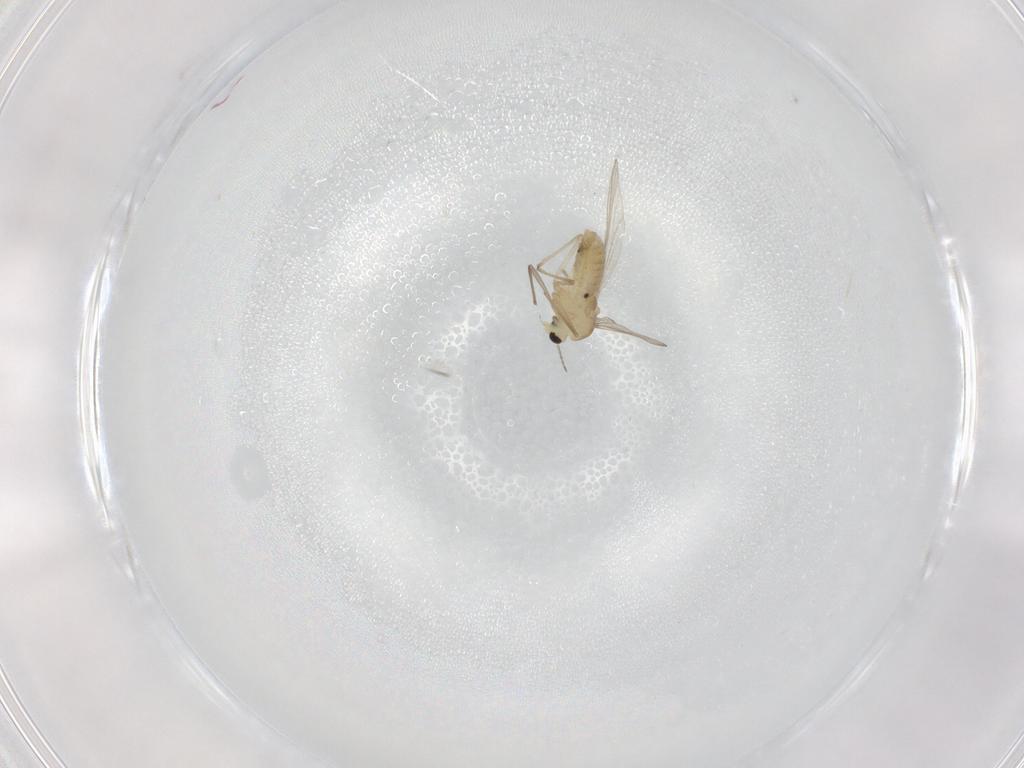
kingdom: Animalia
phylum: Arthropoda
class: Insecta
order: Diptera
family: Chironomidae
